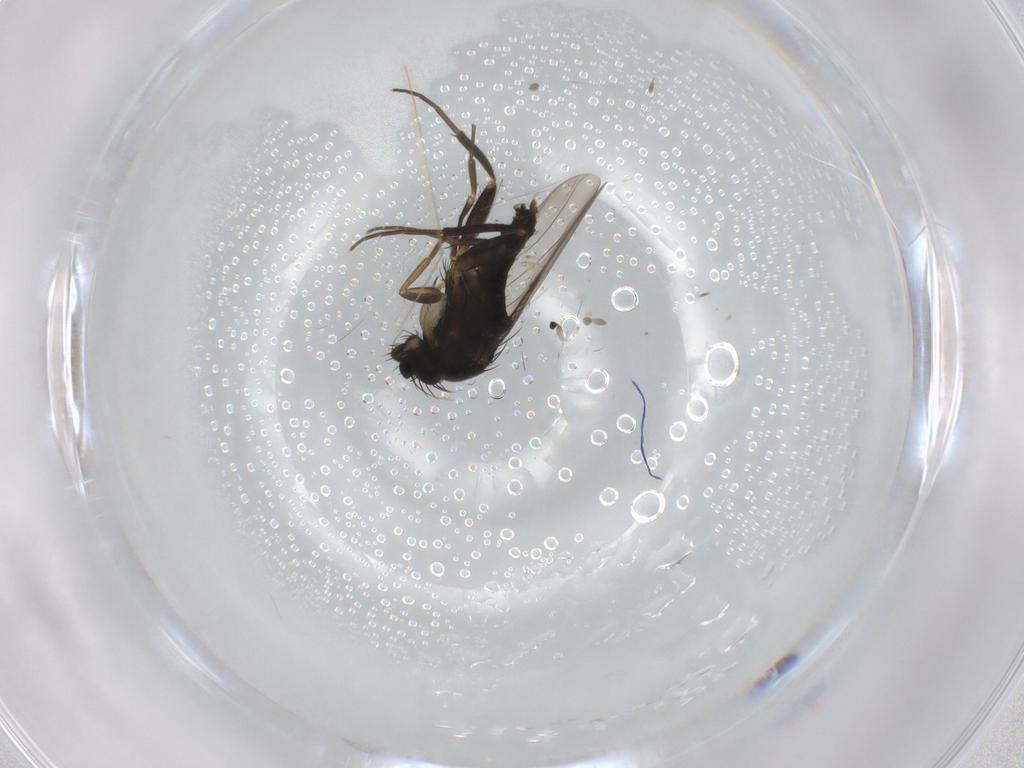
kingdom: Animalia
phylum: Arthropoda
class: Insecta
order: Diptera
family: Phoridae
